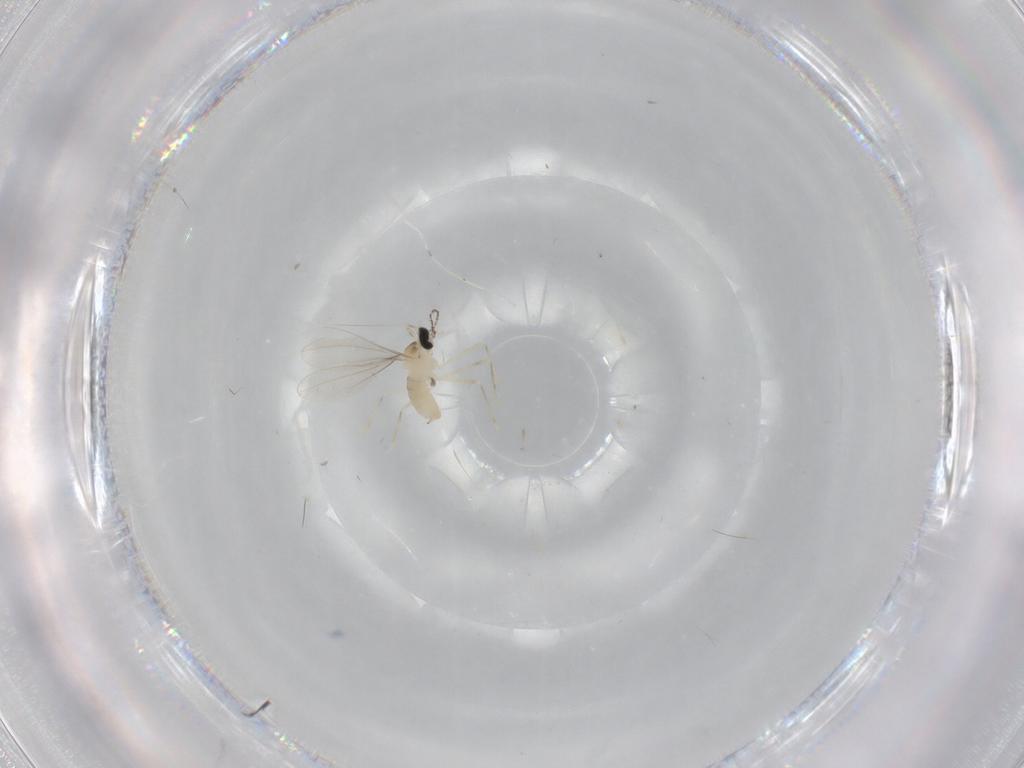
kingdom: Animalia
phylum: Arthropoda
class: Insecta
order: Diptera
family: Cecidomyiidae
